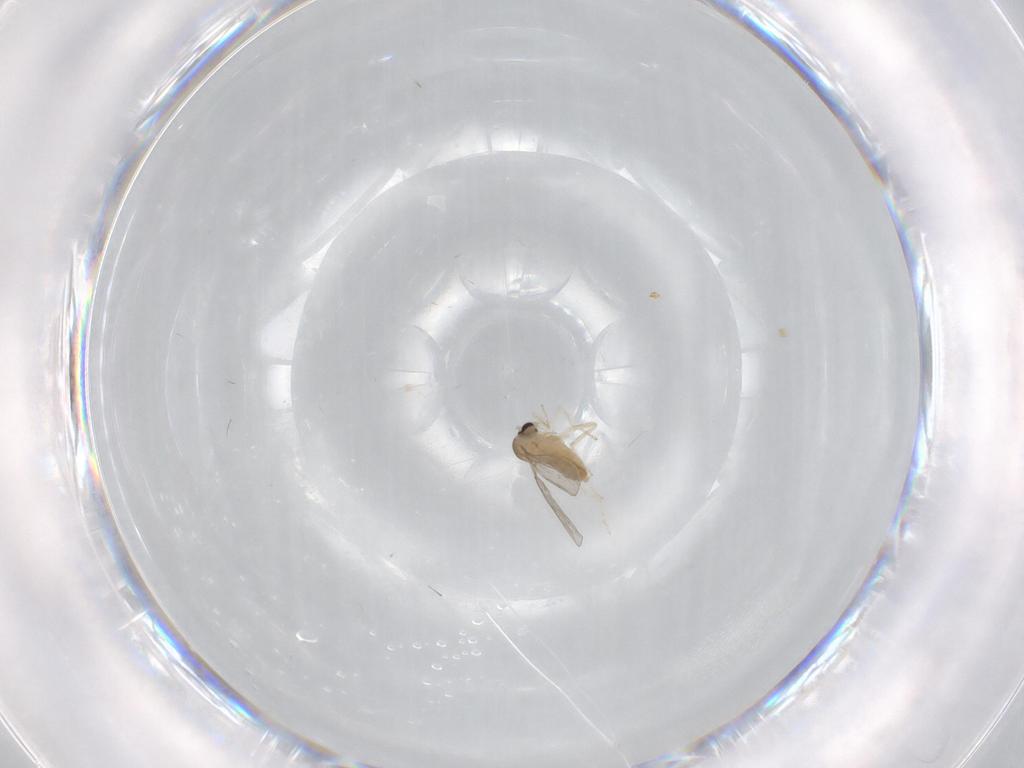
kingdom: Animalia
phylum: Arthropoda
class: Insecta
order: Diptera
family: Cecidomyiidae
